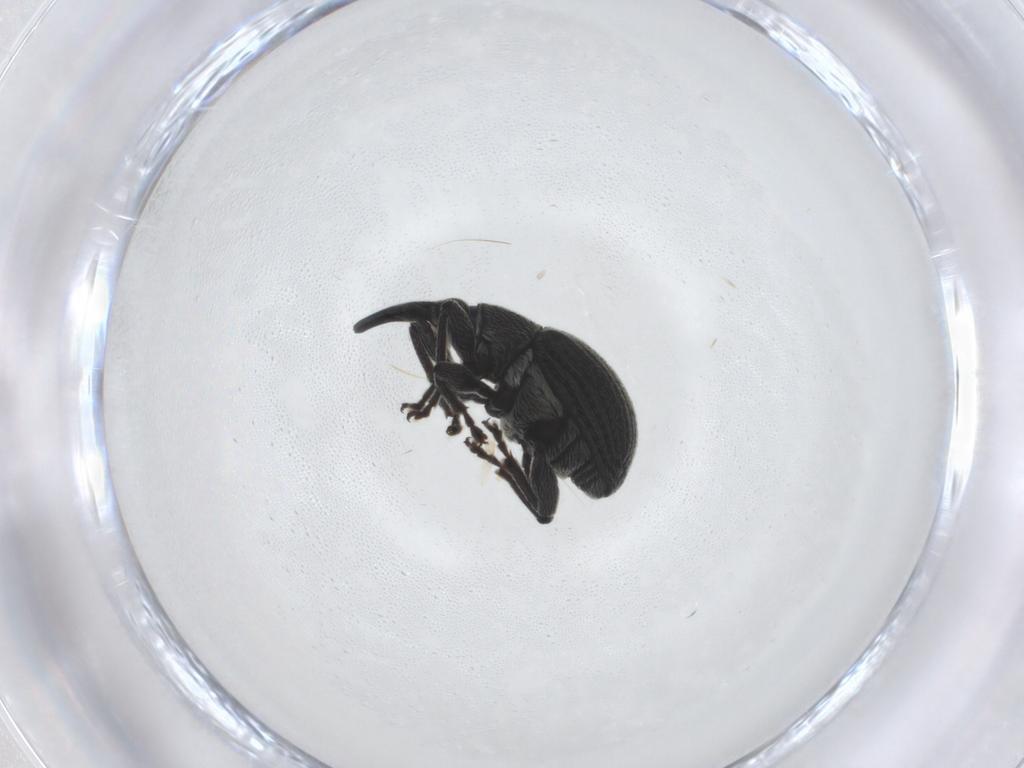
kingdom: Animalia
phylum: Arthropoda
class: Insecta
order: Coleoptera
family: Brentidae
